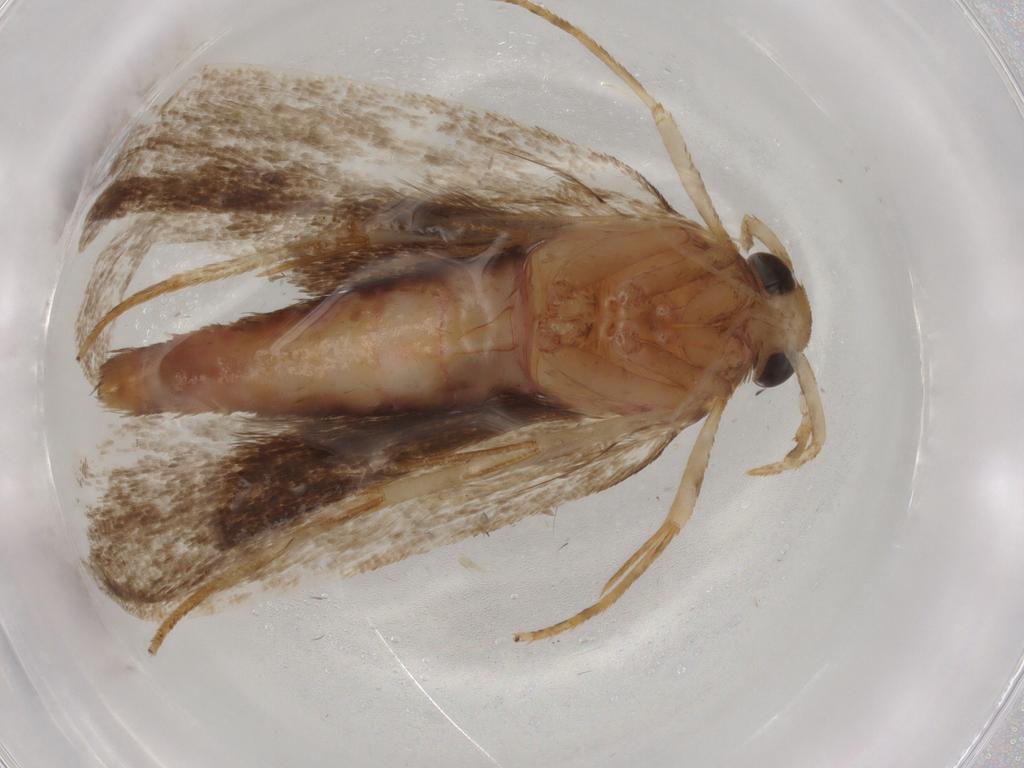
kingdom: Animalia
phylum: Arthropoda
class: Insecta
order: Lepidoptera
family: Autostichidae
